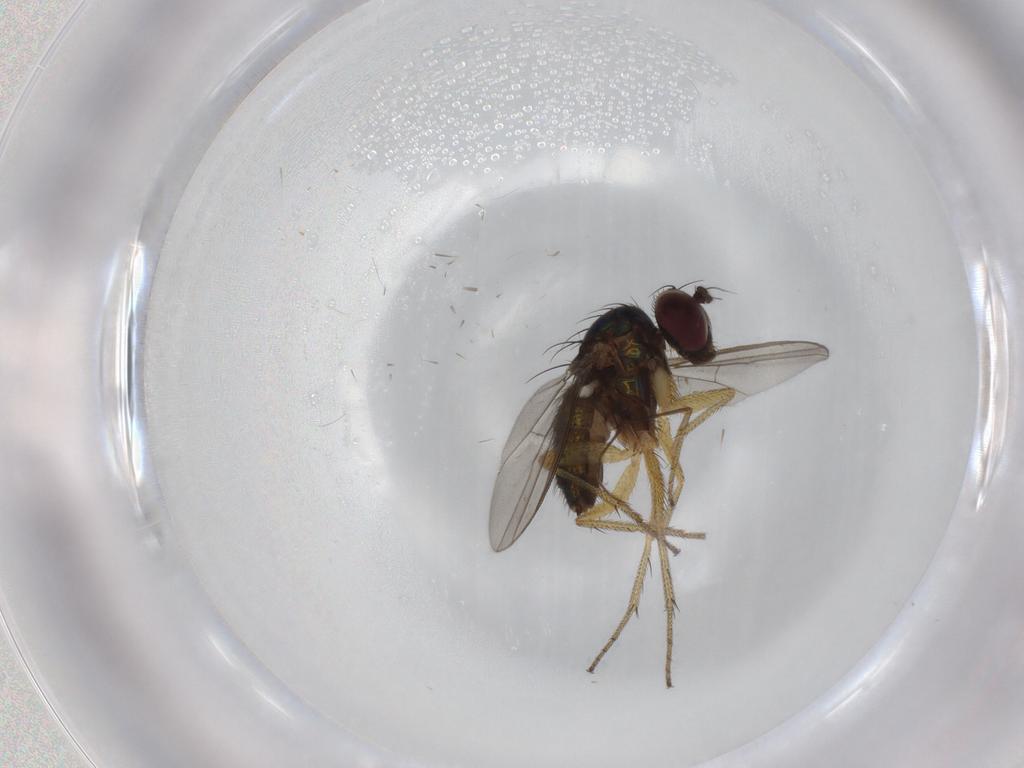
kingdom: Animalia
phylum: Arthropoda
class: Insecta
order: Diptera
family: Dolichopodidae
